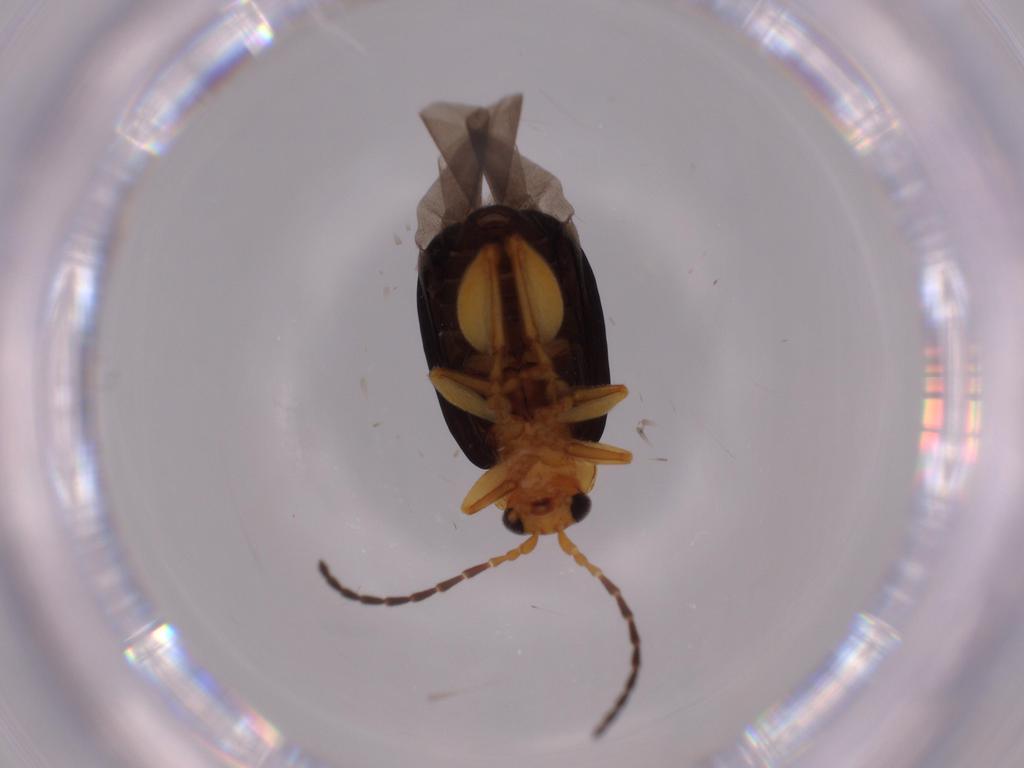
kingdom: Animalia
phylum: Arthropoda
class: Insecta
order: Coleoptera
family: Chrysomelidae
